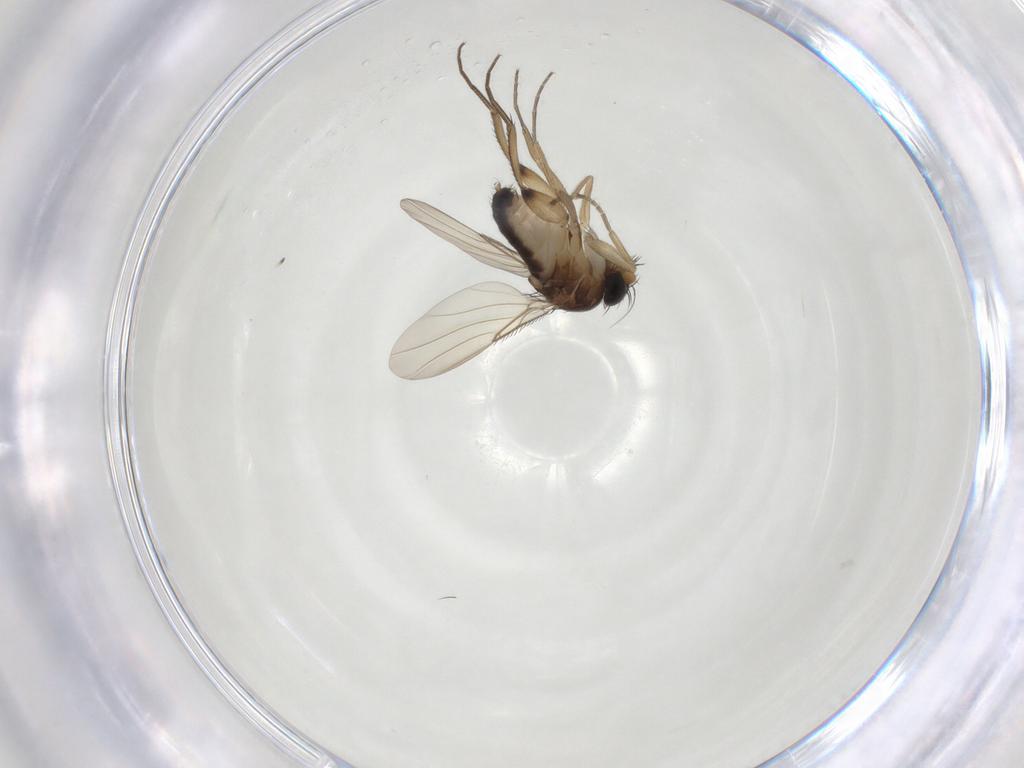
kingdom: Animalia
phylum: Arthropoda
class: Insecta
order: Diptera
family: Phoridae
